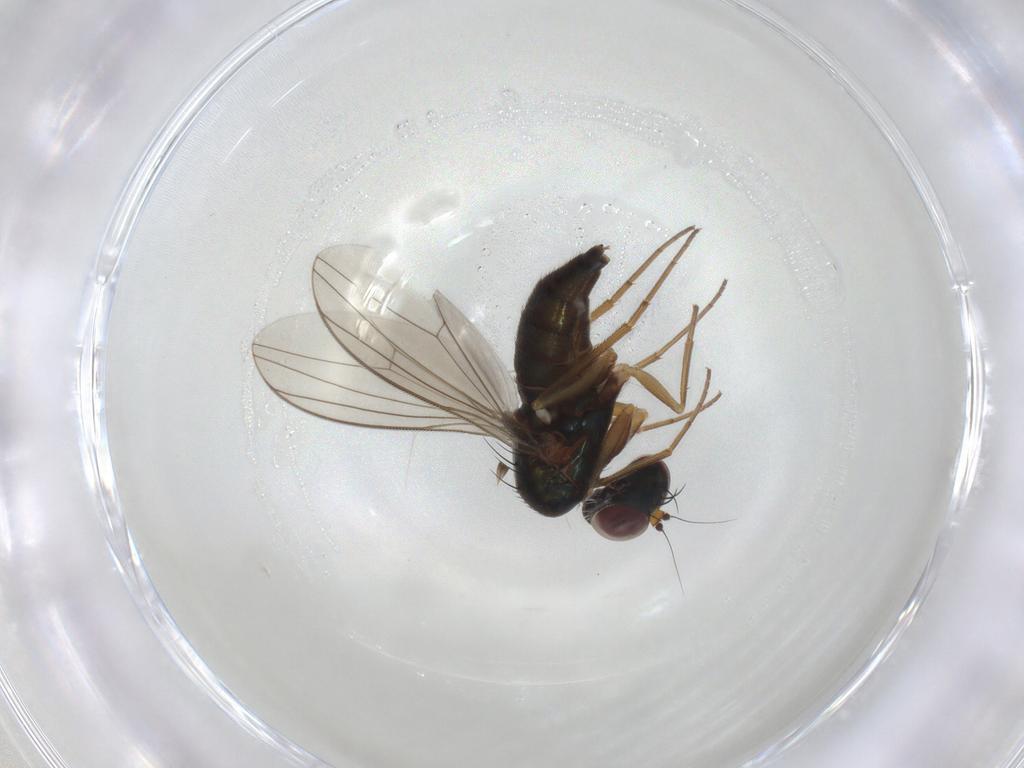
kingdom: Animalia
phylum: Arthropoda
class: Insecta
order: Diptera
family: Dolichopodidae
